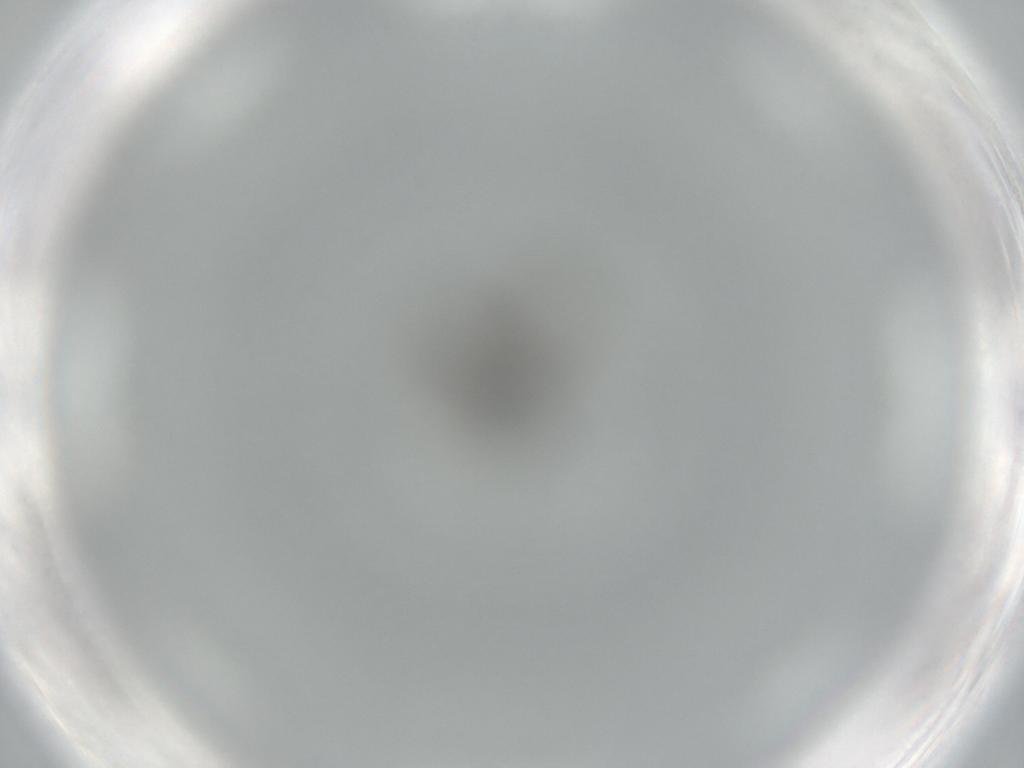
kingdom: Animalia
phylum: Arthropoda
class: Insecta
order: Diptera
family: Sciaridae
